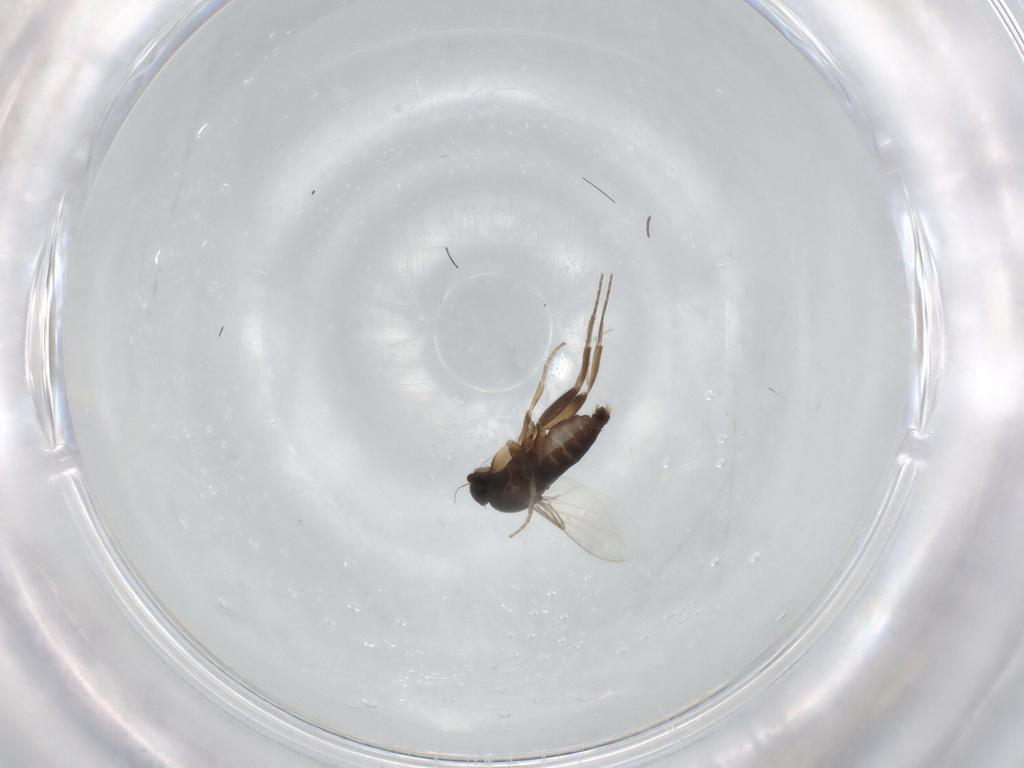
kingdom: Animalia
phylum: Arthropoda
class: Insecta
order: Diptera
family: Phoridae
